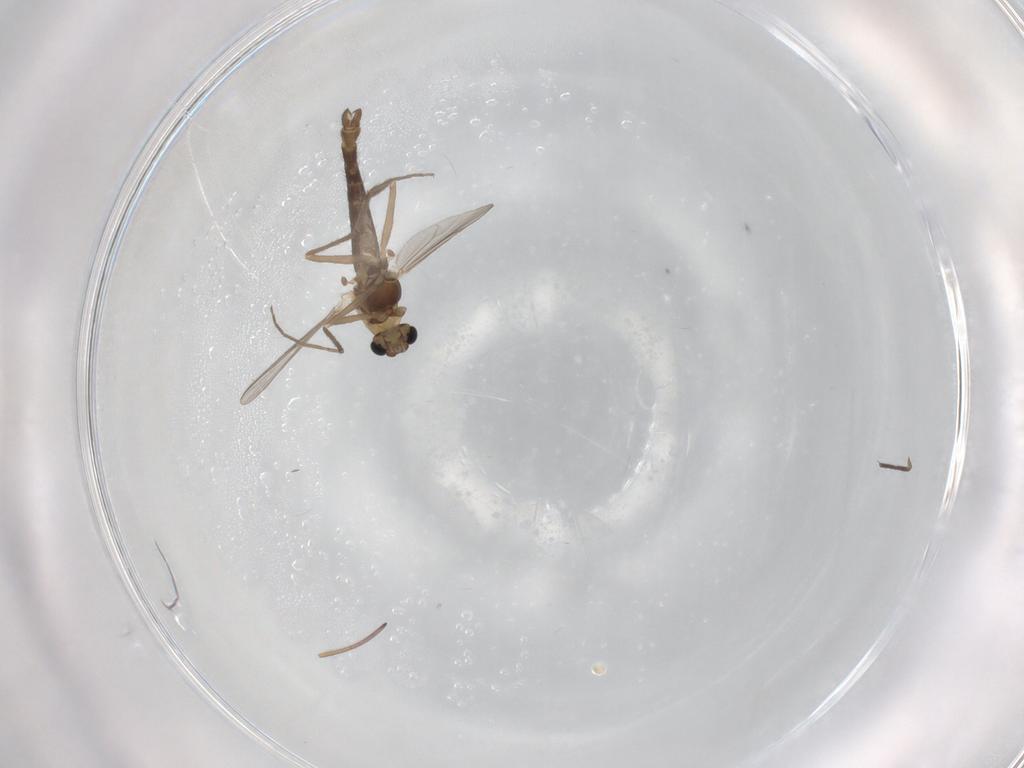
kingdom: Animalia
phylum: Arthropoda
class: Insecta
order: Diptera
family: Chironomidae
